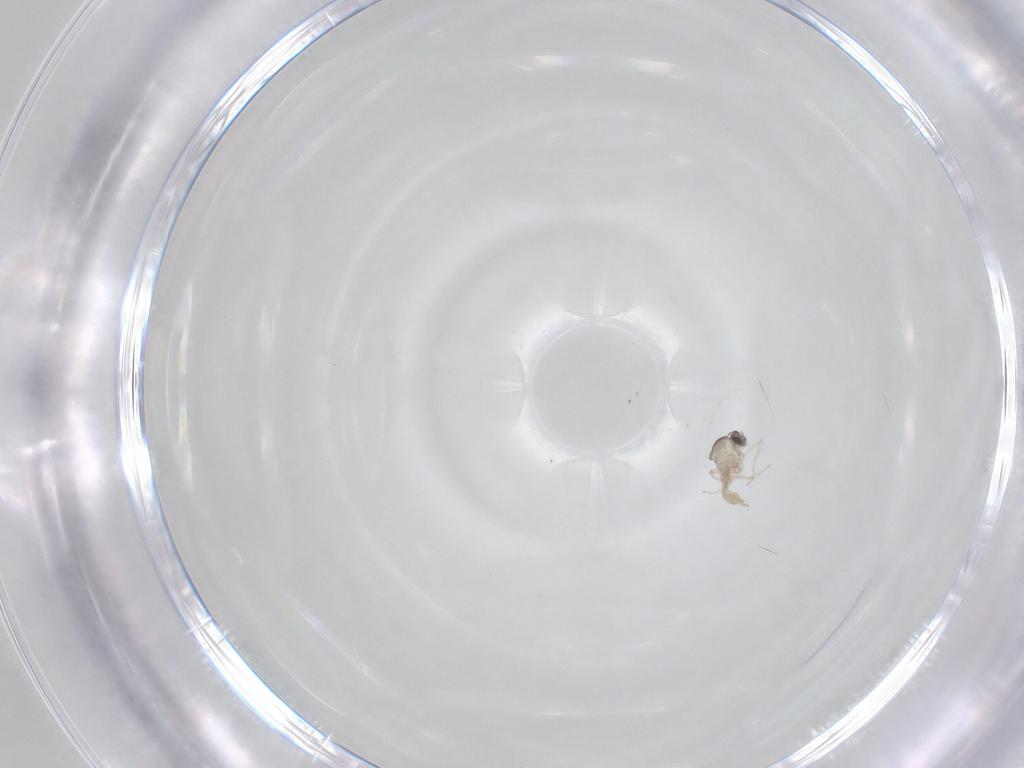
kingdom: Animalia
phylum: Arthropoda
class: Insecta
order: Diptera
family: Cecidomyiidae
